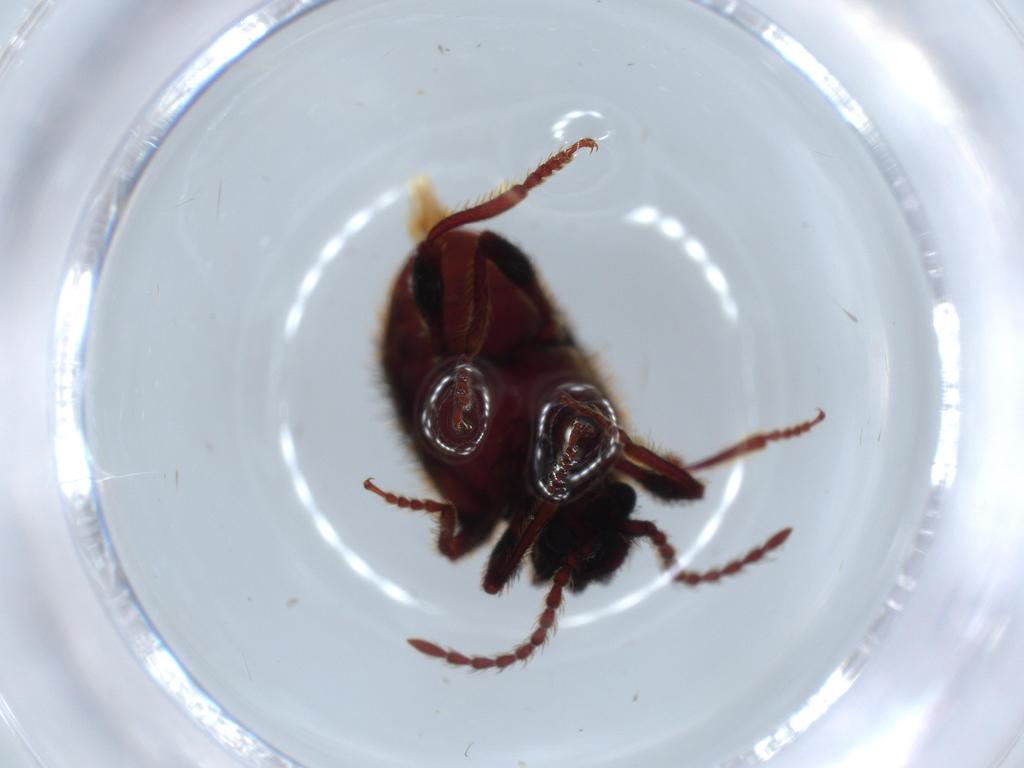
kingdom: Animalia
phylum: Arthropoda
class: Insecta
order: Coleoptera
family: Ptinidae
